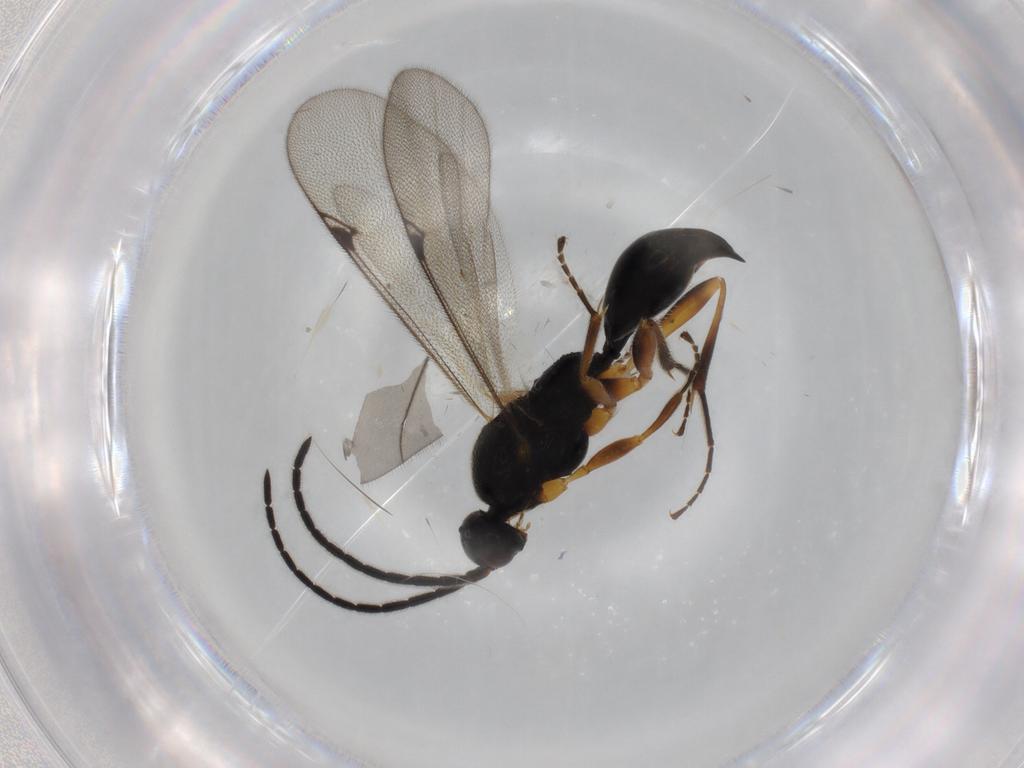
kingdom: Animalia
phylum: Arthropoda
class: Insecta
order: Hymenoptera
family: Proctotrupidae
